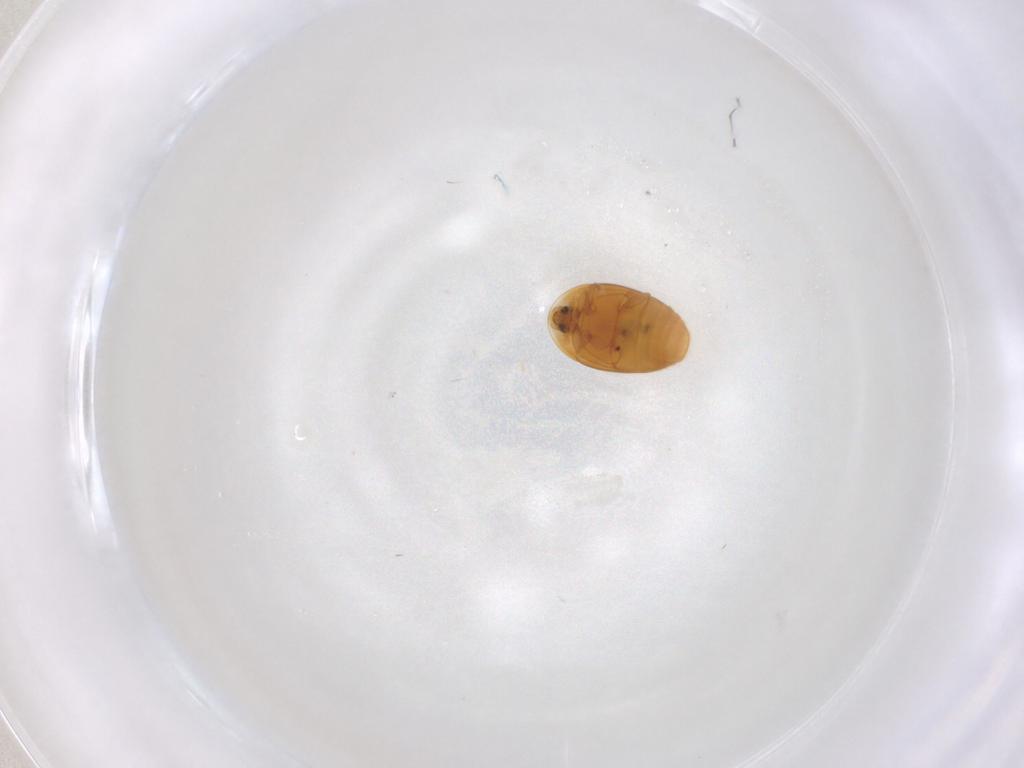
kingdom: Animalia
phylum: Arthropoda
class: Insecta
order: Coleoptera
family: Corylophidae
